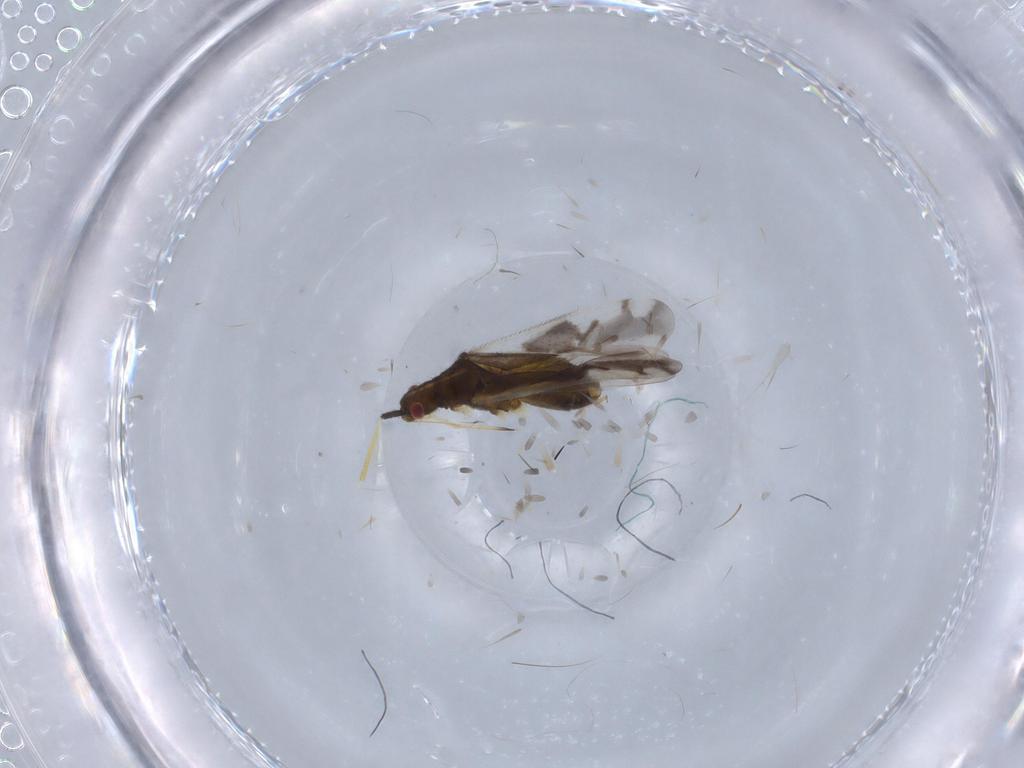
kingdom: Animalia
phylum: Arthropoda
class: Insecta
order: Hemiptera
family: Miridae
